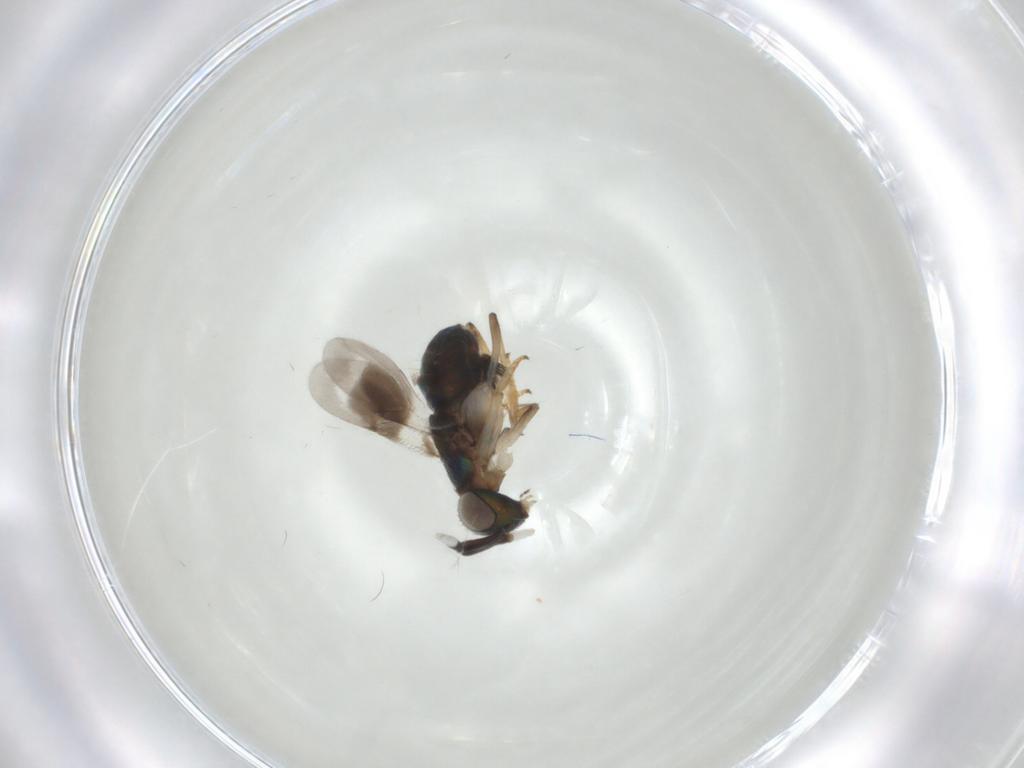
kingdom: Animalia
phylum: Arthropoda
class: Insecta
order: Hymenoptera
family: Diapriidae
